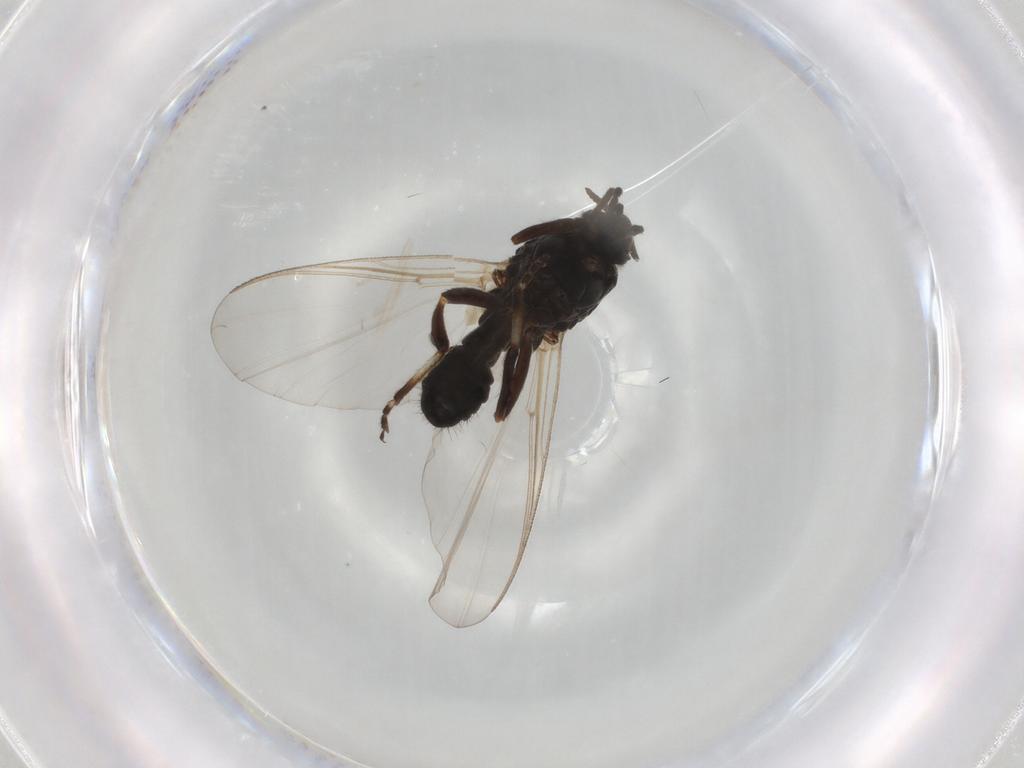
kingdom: Animalia
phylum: Arthropoda
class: Insecta
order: Diptera
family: Simuliidae
